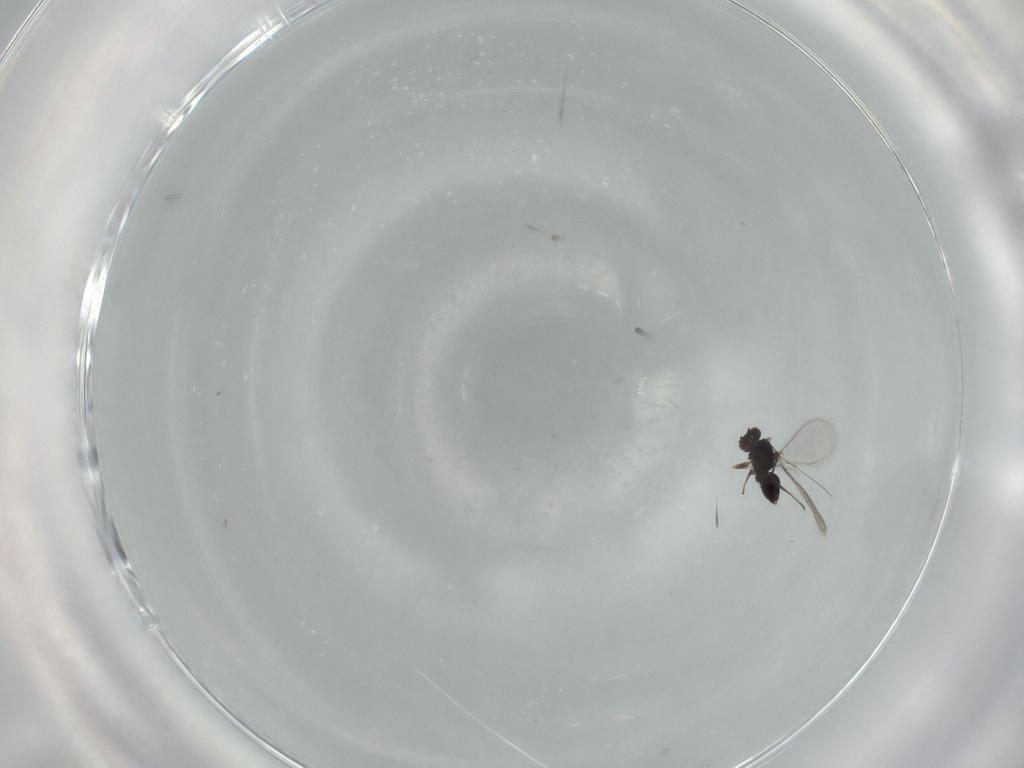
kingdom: Animalia
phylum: Arthropoda
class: Insecta
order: Hymenoptera
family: Mymaridae
